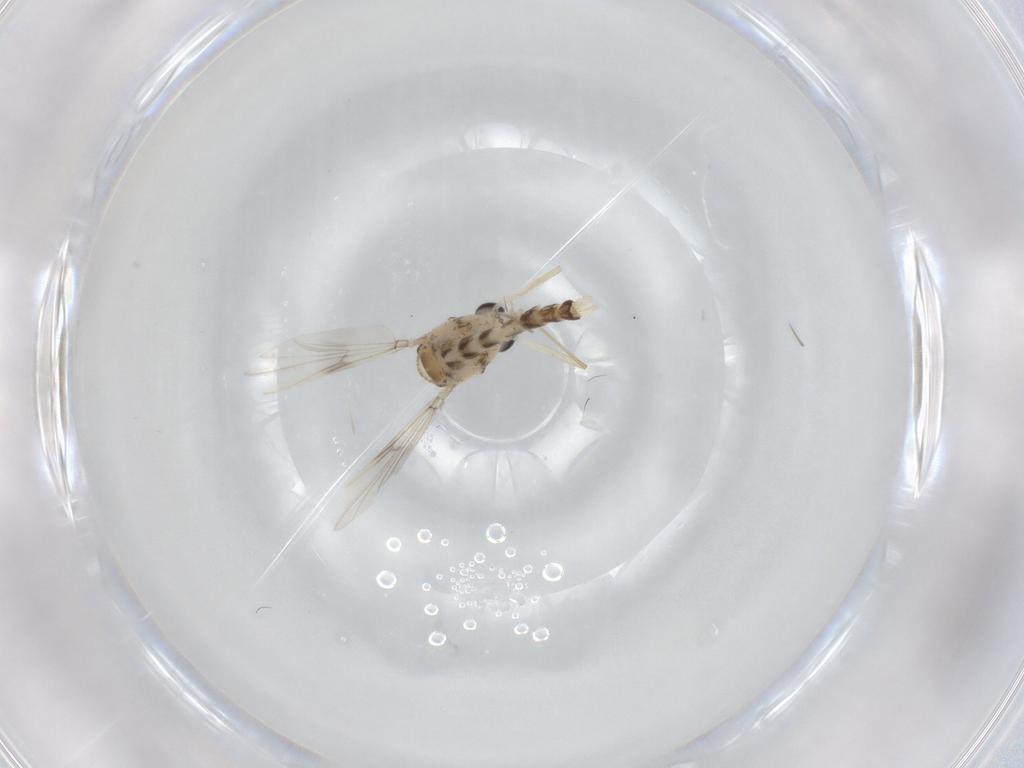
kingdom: Animalia
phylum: Arthropoda
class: Insecta
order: Diptera
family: Chironomidae
